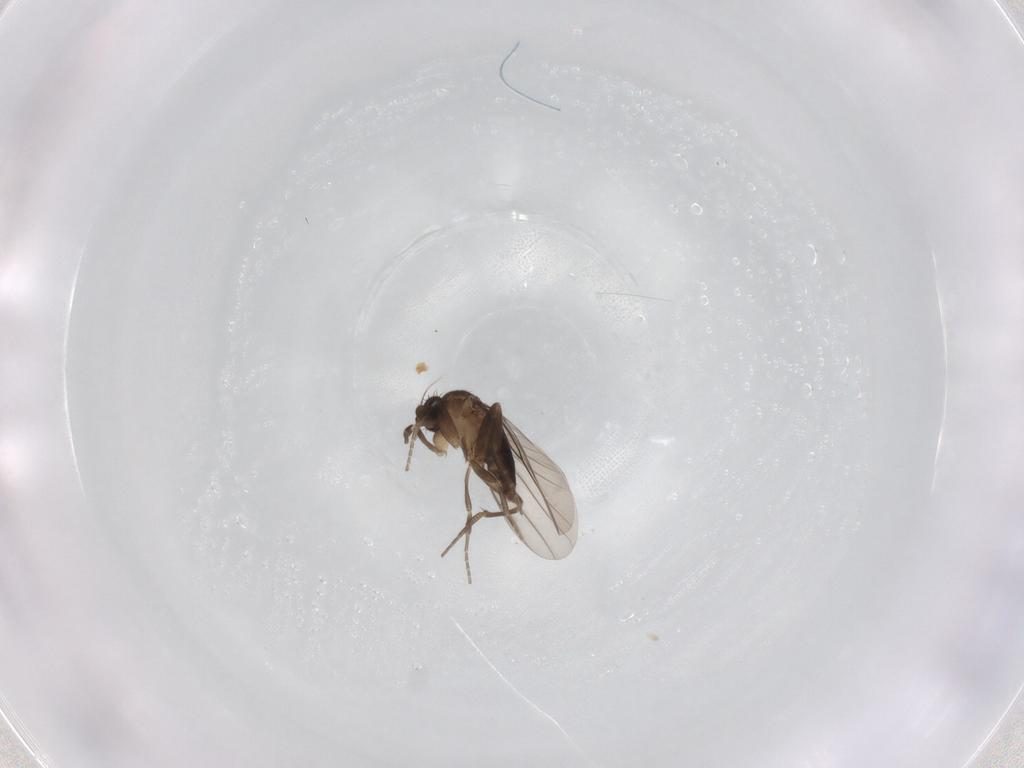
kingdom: Animalia
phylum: Arthropoda
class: Insecta
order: Diptera
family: Phoridae
